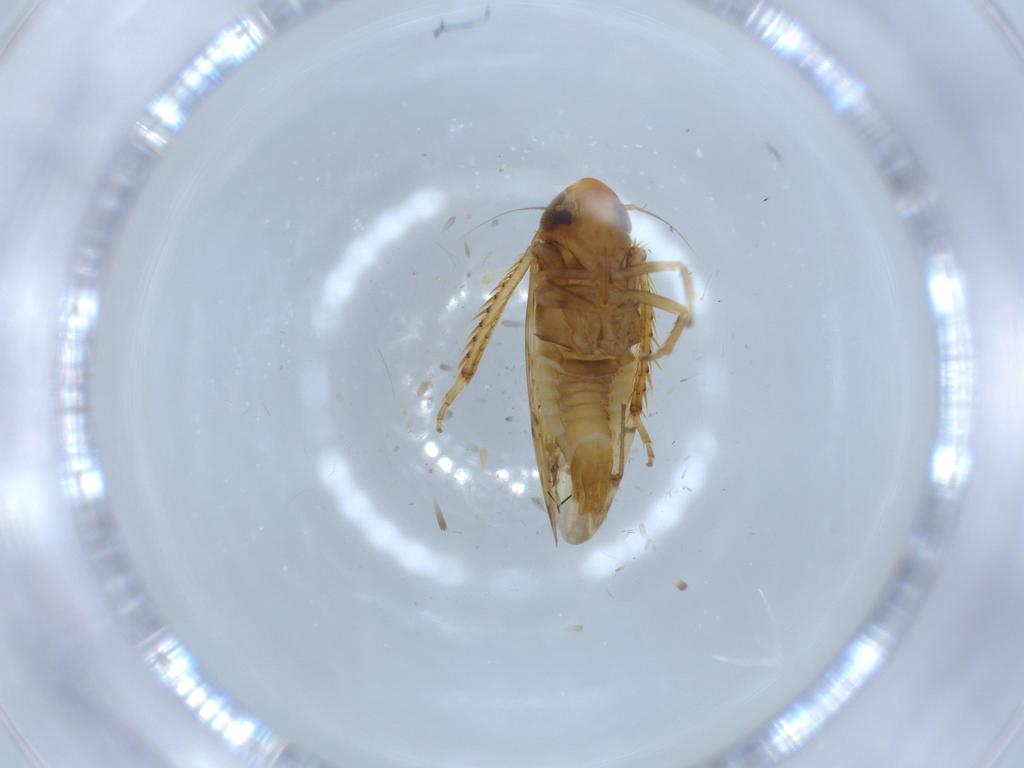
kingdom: Animalia
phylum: Arthropoda
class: Insecta
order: Hemiptera
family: Cicadellidae
